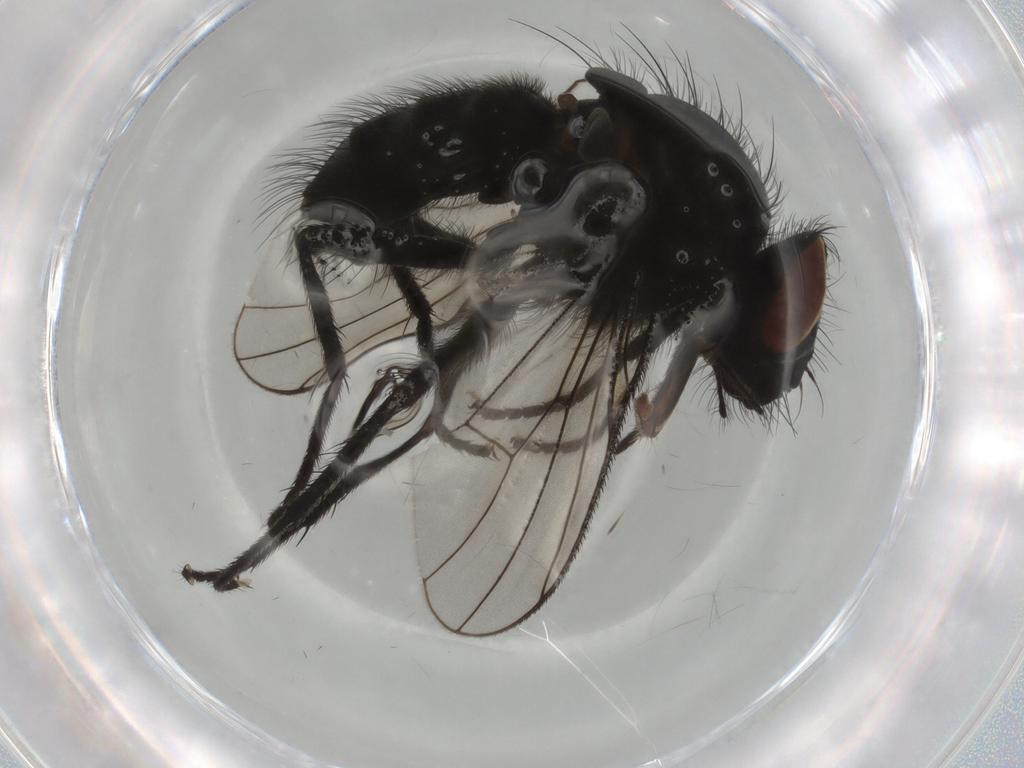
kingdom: Animalia
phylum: Arthropoda
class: Insecta
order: Diptera
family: Muscidae
